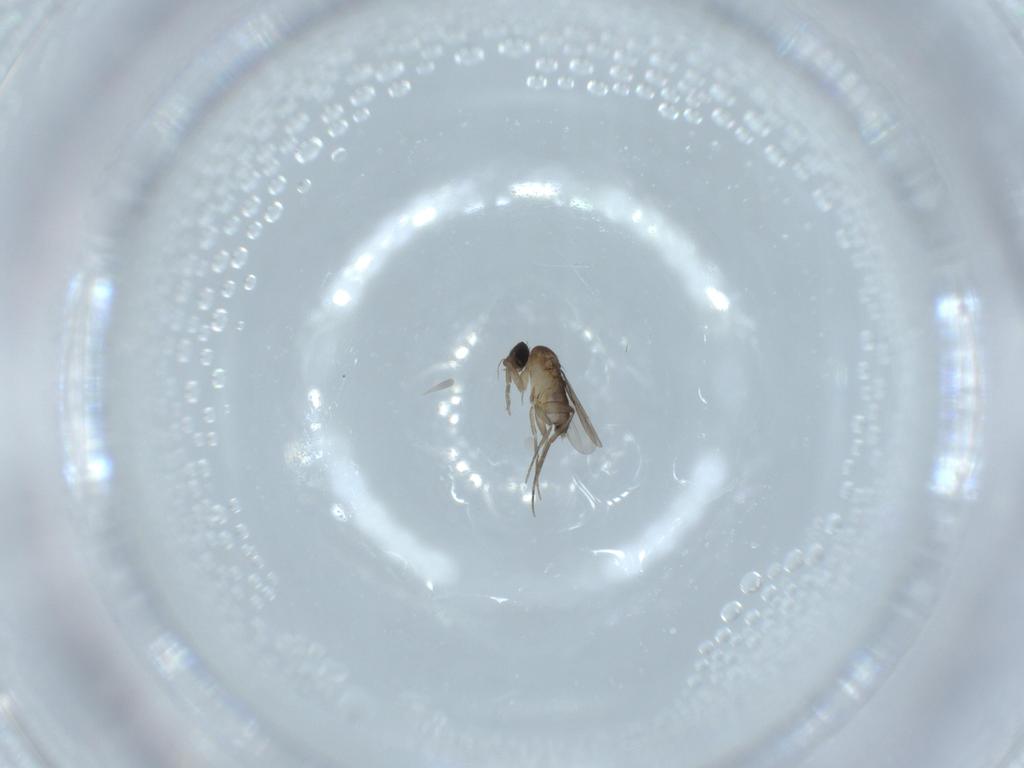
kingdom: Animalia
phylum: Arthropoda
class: Insecta
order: Diptera
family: Phoridae
